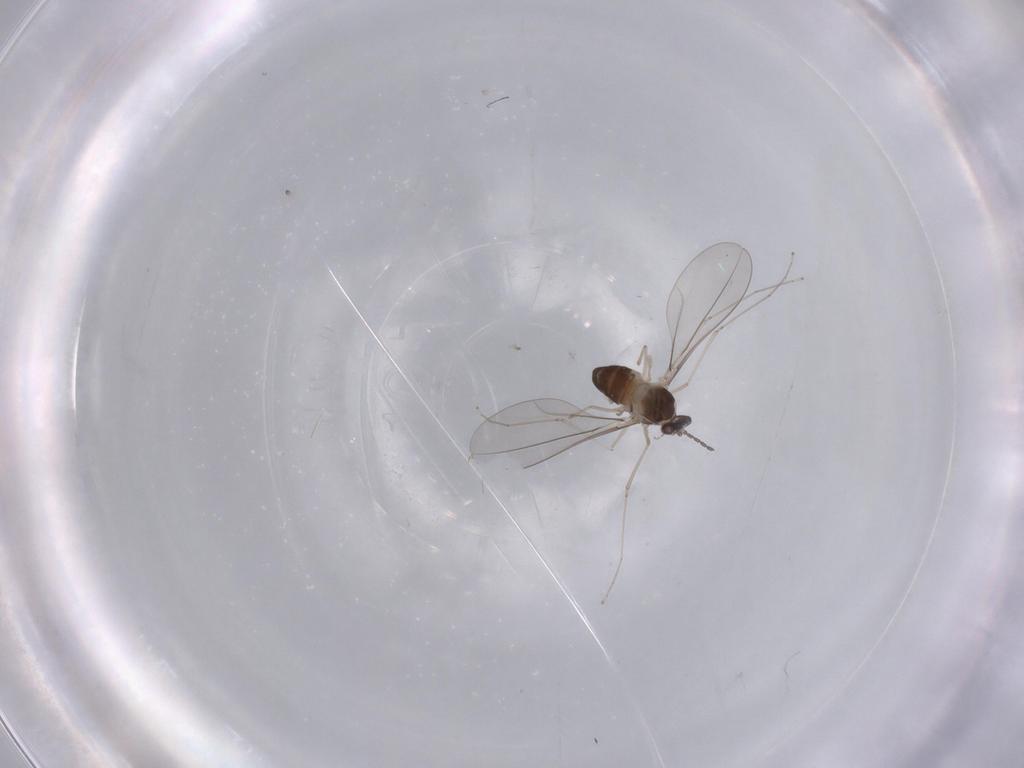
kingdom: Animalia
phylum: Arthropoda
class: Insecta
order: Diptera
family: Cecidomyiidae
